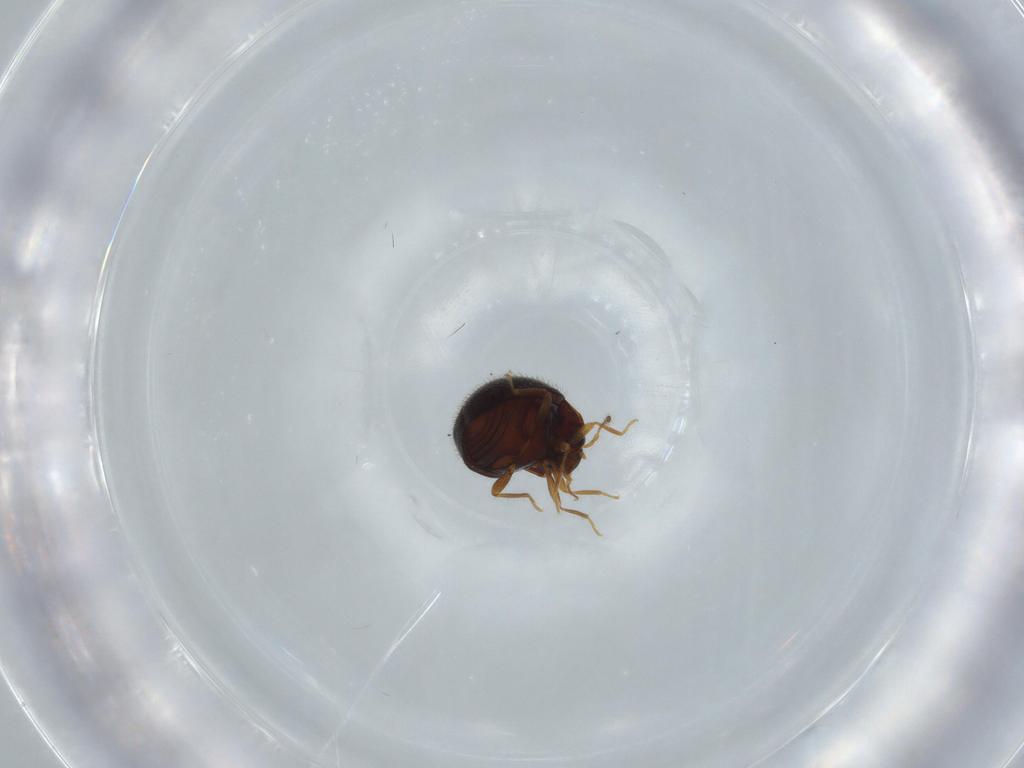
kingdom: Animalia
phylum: Arthropoda
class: Insecta
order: Coleoptera
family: Anamorphidae
